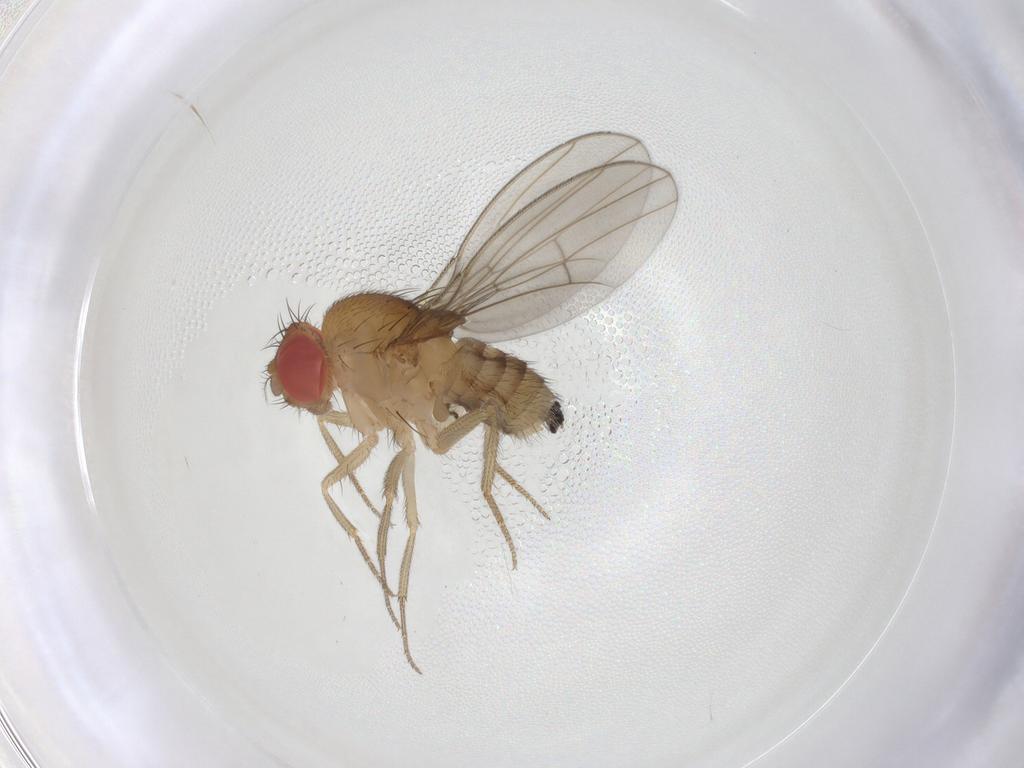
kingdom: Animalia
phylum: Arthropoda
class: Insecta
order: Diptera
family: Drosophilidae
